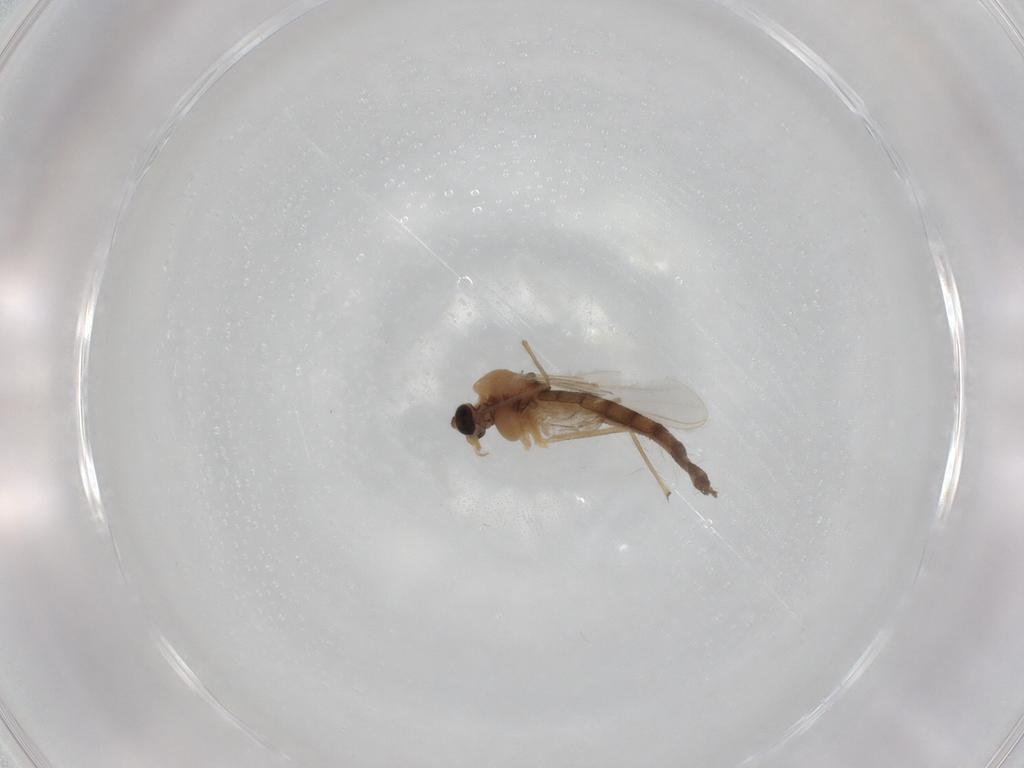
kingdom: Animalia
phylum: Arthropoda
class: Insecta
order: Diptera
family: Chironomidae
